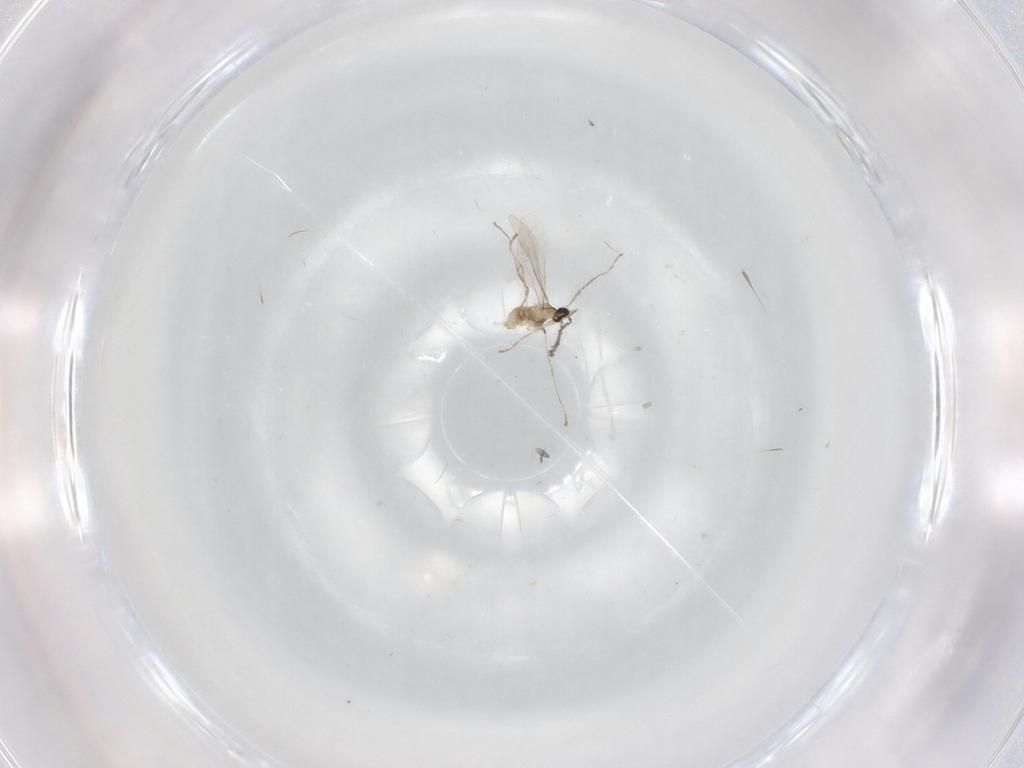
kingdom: Animalia
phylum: Arthropoda
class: Insecta
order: Diptera
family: Cecidomyiidae
